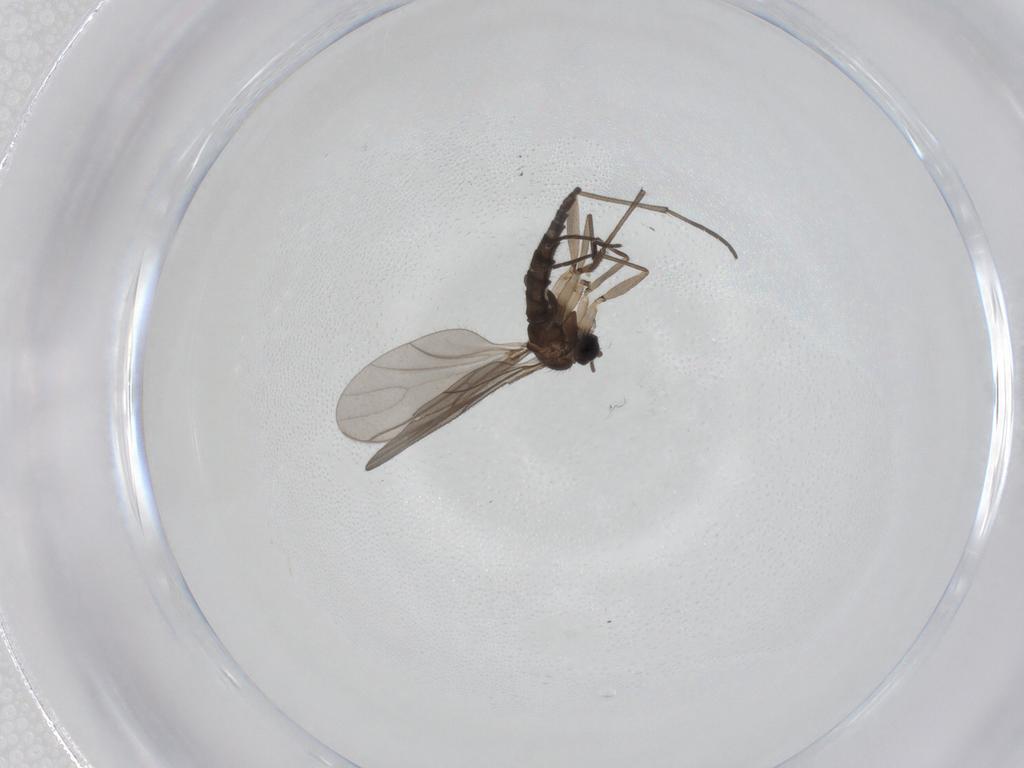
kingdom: Animalia
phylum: Arthropoda
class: Insecta
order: Diptera
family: Sciaridae
